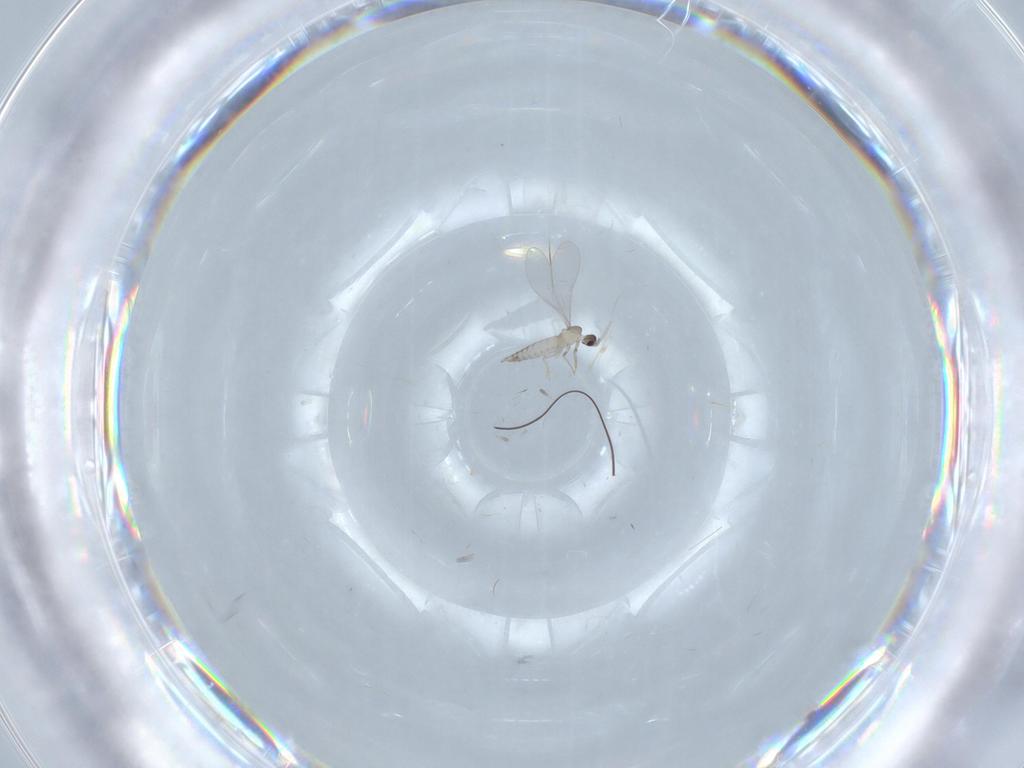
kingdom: Animalia
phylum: Arthropoda
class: Insecta
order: Diptera
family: Cecidomyiidae
